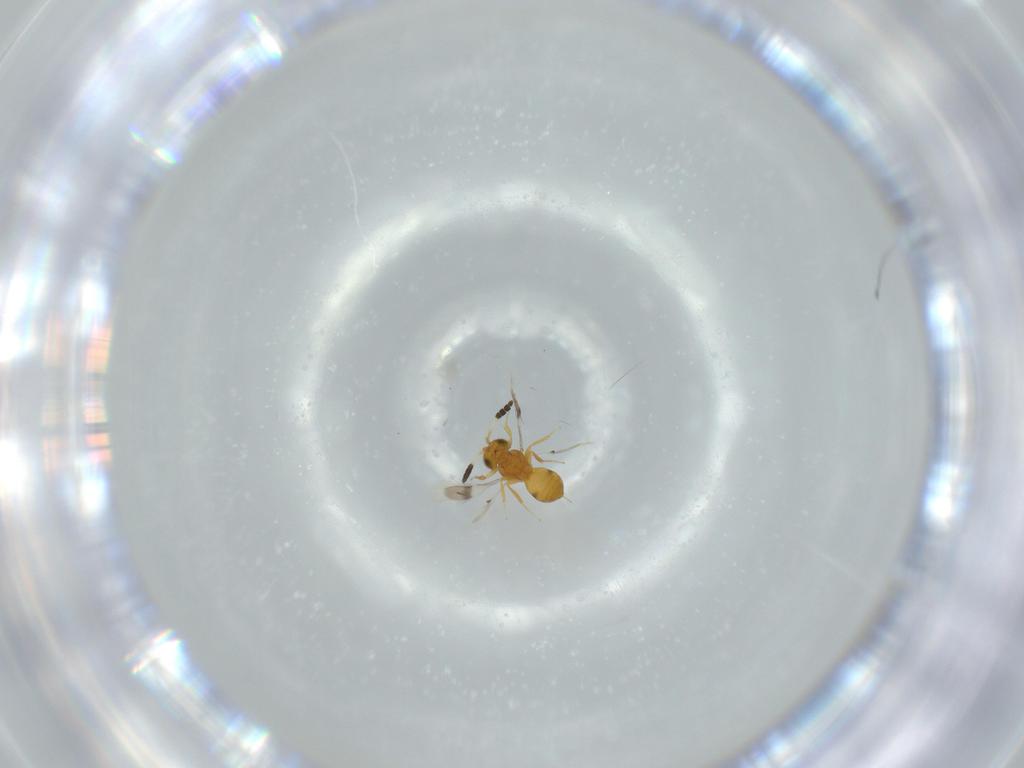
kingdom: Animalia
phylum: Arthropoda
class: Insecta
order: Hymenoptera
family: Scelionidae
